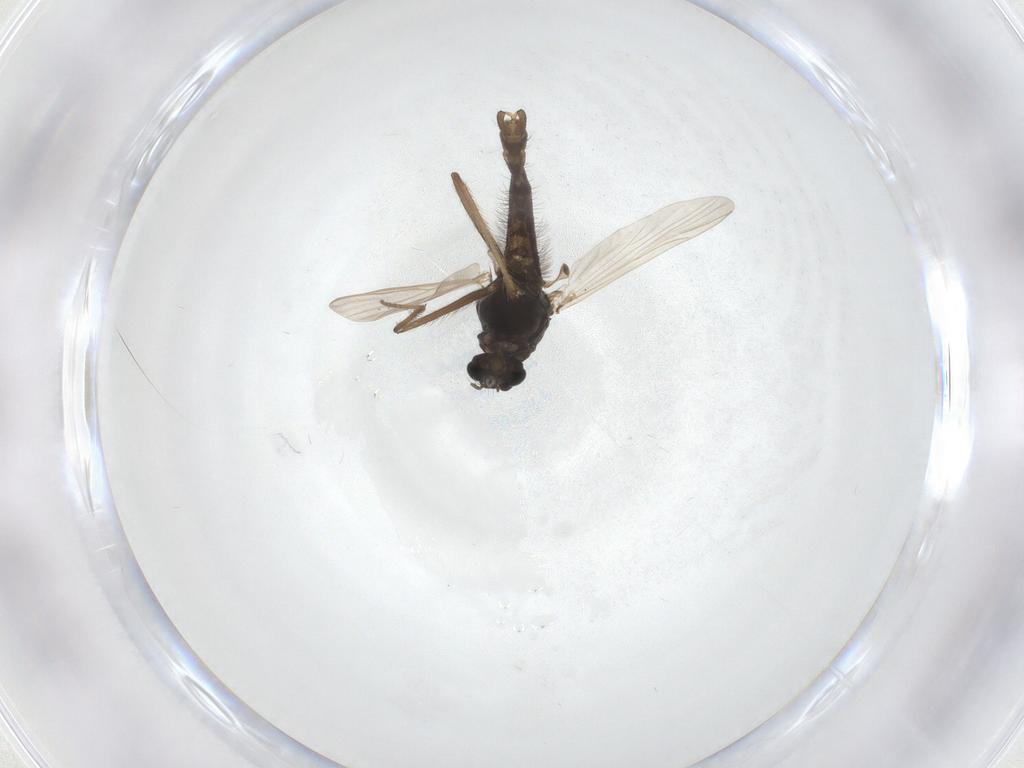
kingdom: Animalia
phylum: Arthropoda
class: Insecta
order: Diptera
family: Chironomidae
